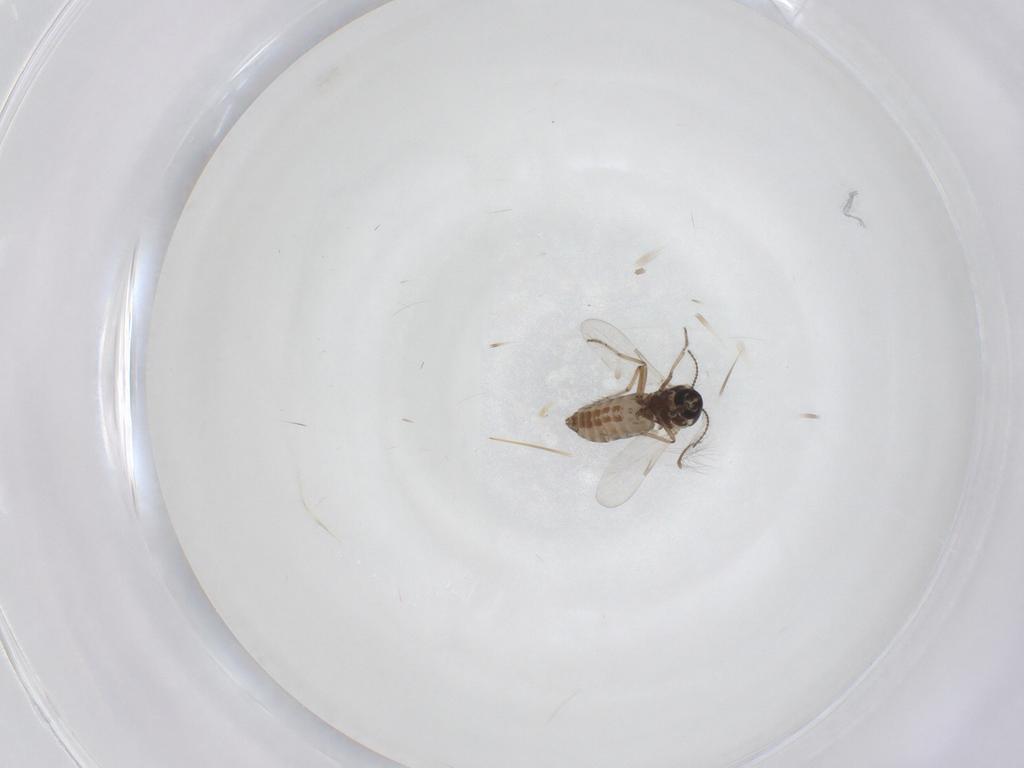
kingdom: Animalia
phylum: Arthropoda
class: Insecta
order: Diptera
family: Ceratopogonidae
